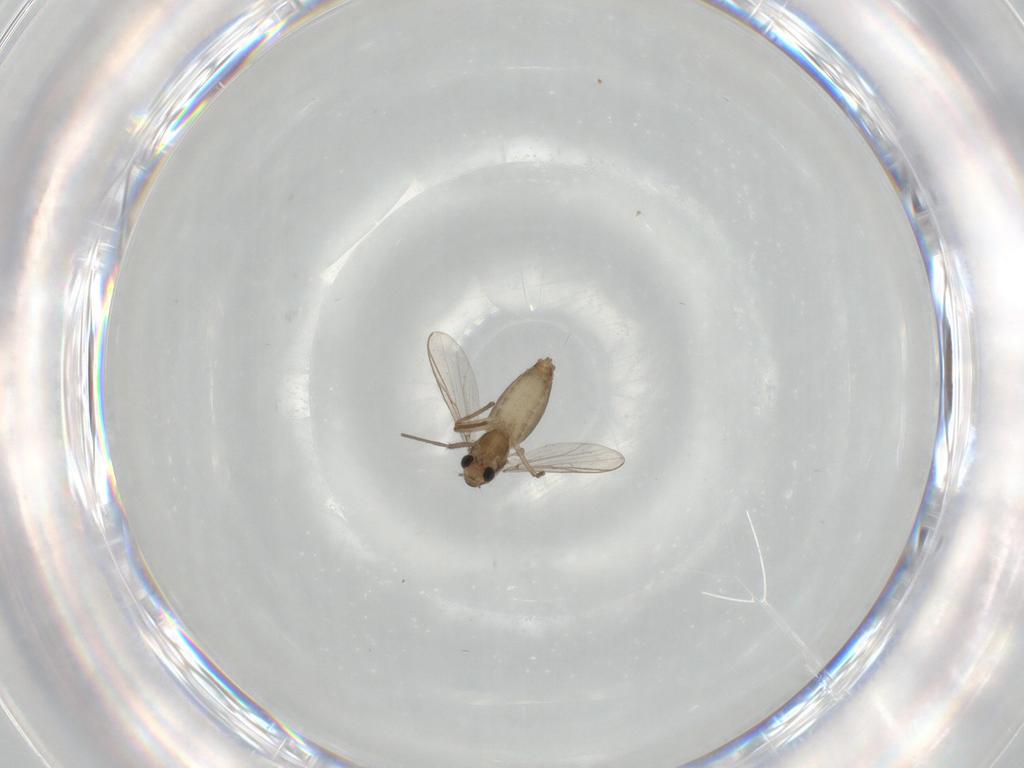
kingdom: Animalia
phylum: Arthropoda
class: Insecta
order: Diptera
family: Chironomidae
